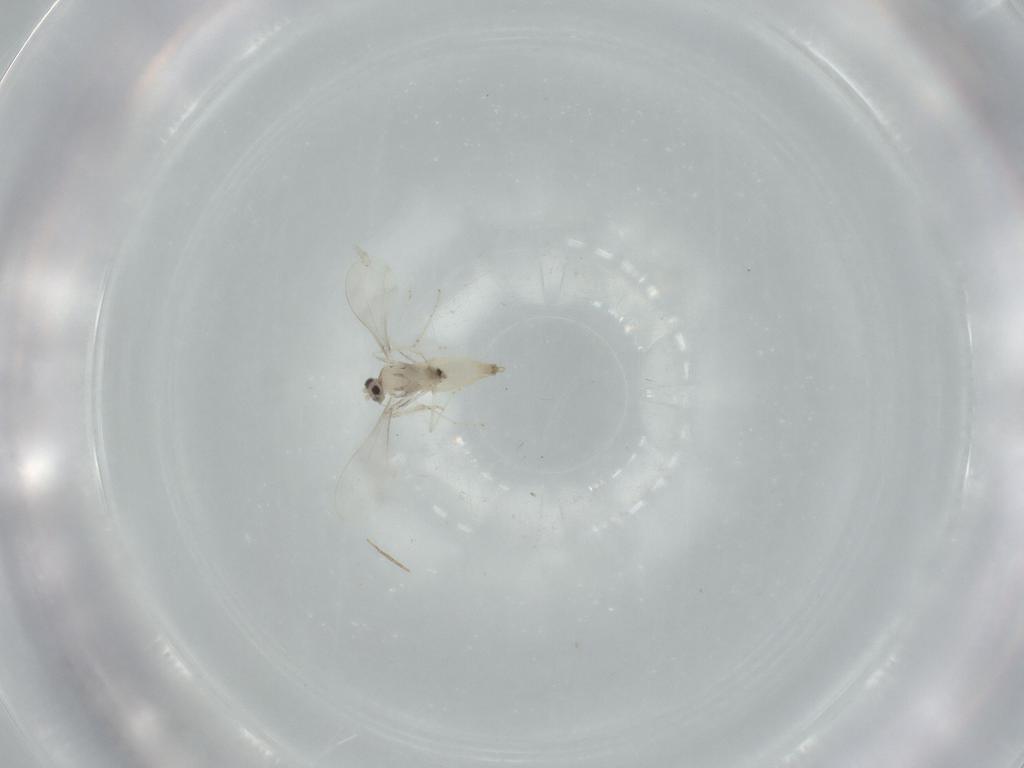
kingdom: Animalia
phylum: Arthropoda
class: Insecta
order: Diptera
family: Cecidomyiidae
